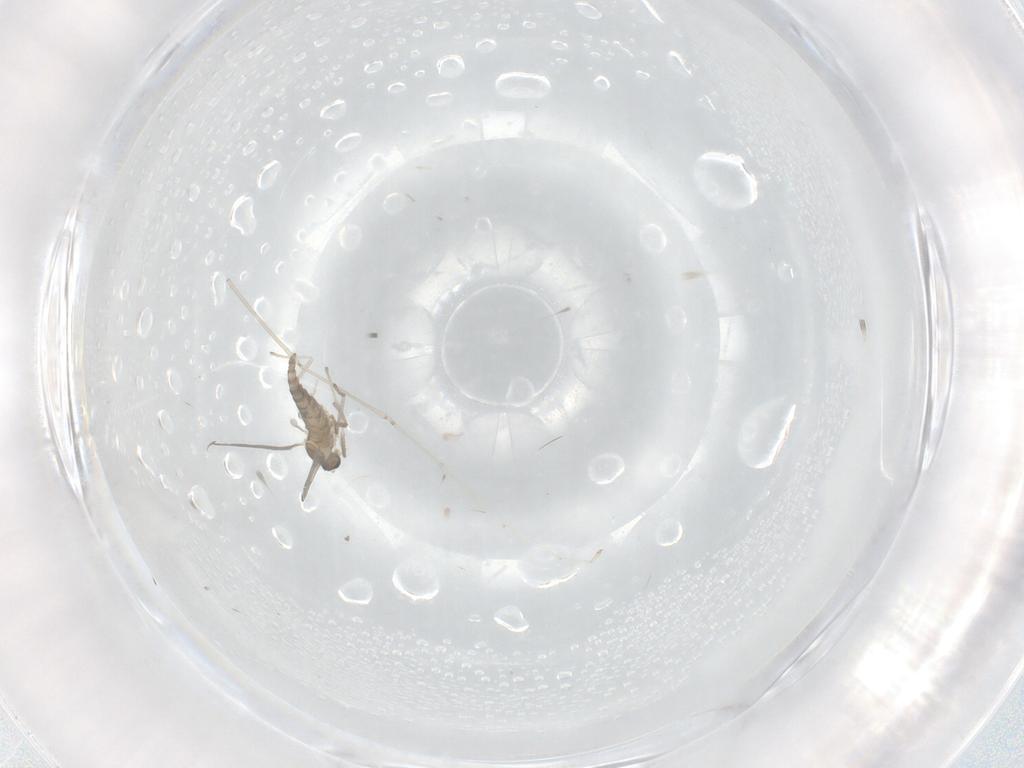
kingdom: Animalia
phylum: Arthropoda
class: Insecta
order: Diptera
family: Cecidomyiidae
